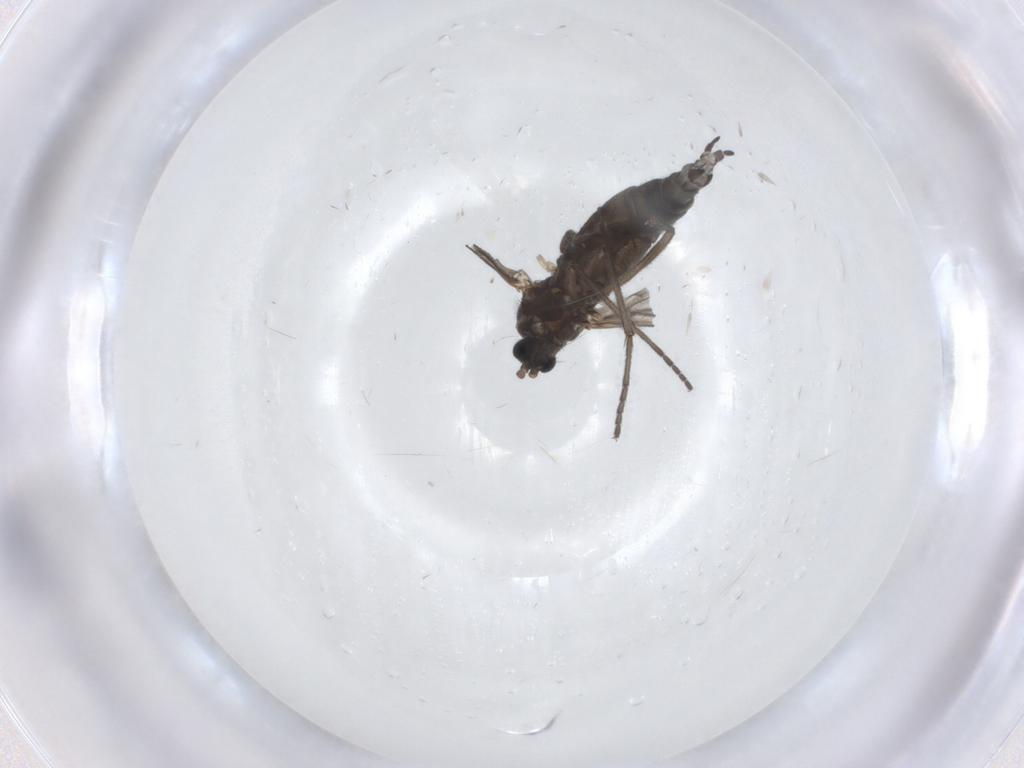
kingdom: Animalia
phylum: Arthropoda
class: Insecta
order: Diptera
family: Sciaridae
